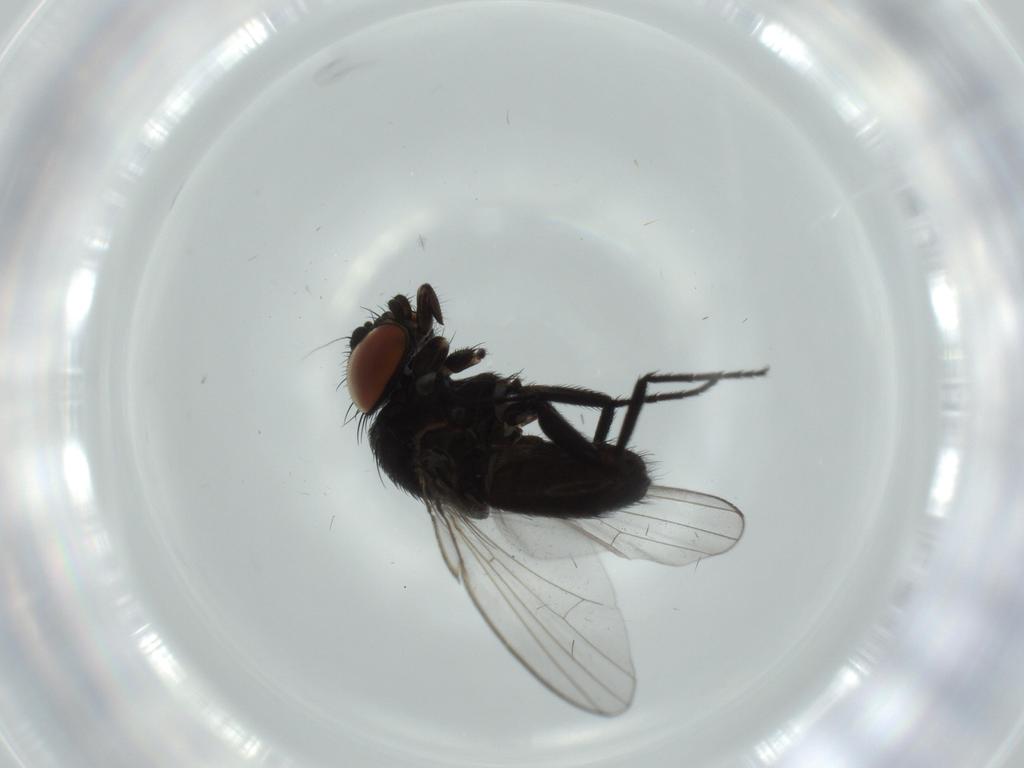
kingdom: Animalia
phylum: Arthropoda
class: Insecta
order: Diptera
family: Milichiidae
